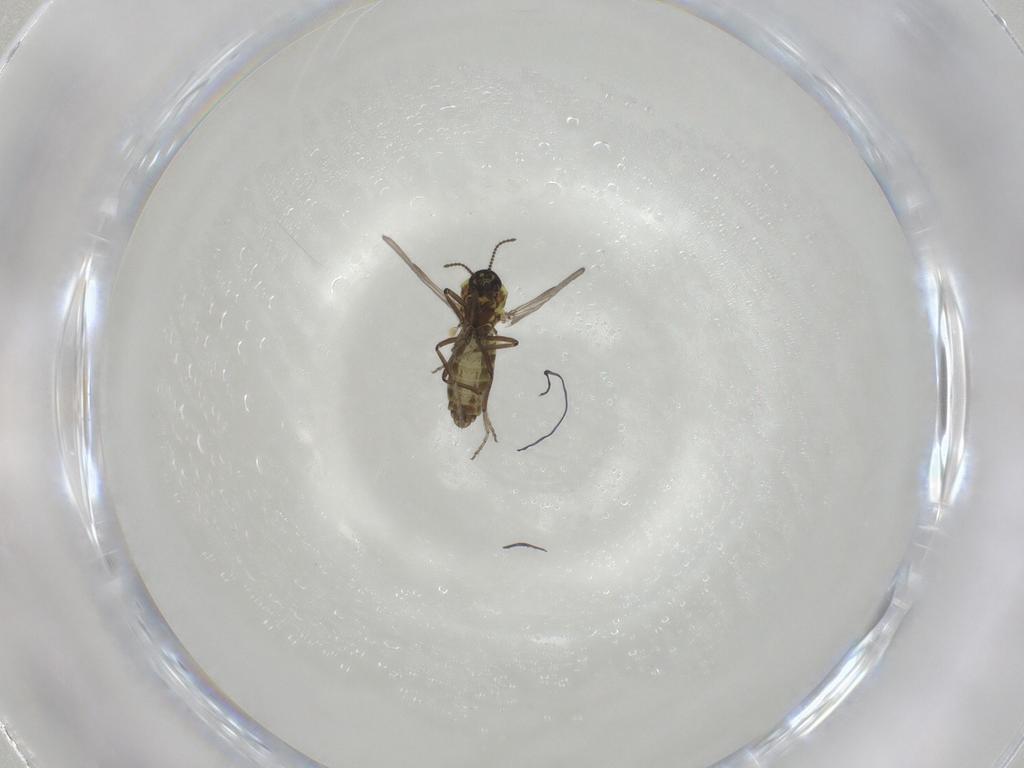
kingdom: Animalia
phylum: Arthropoda
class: Insecta
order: Diptera
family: Ceratopogonidae
